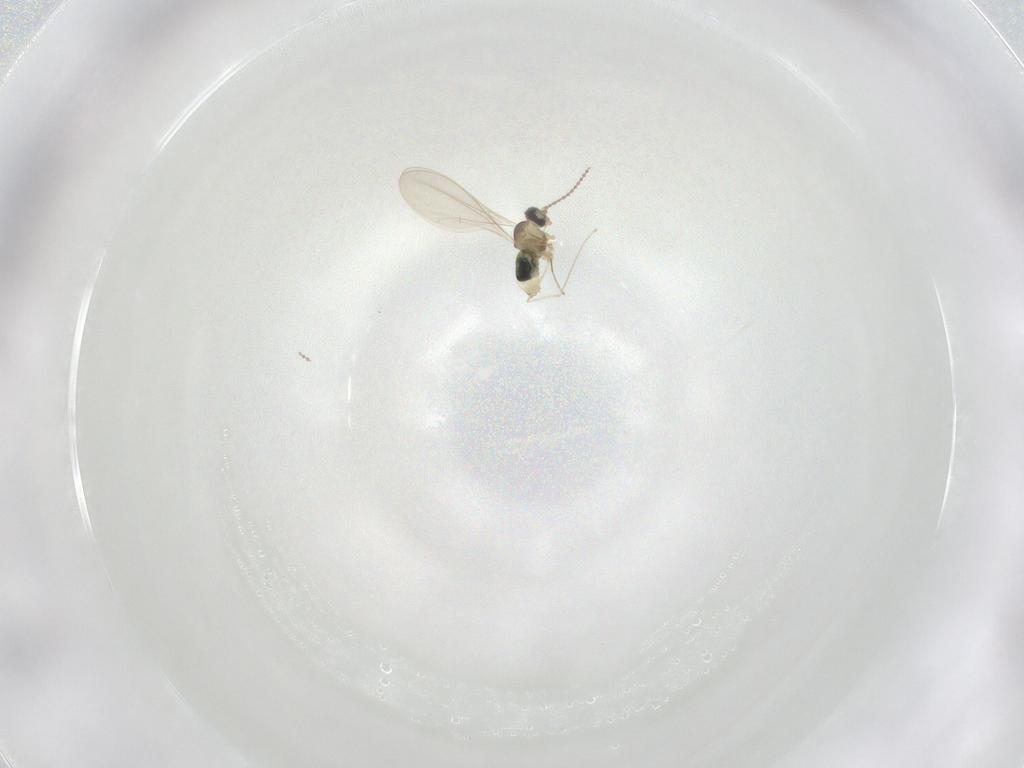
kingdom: Animalia
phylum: Arthropoda
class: Insecta
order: Diptera
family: Cecidomyiidae
